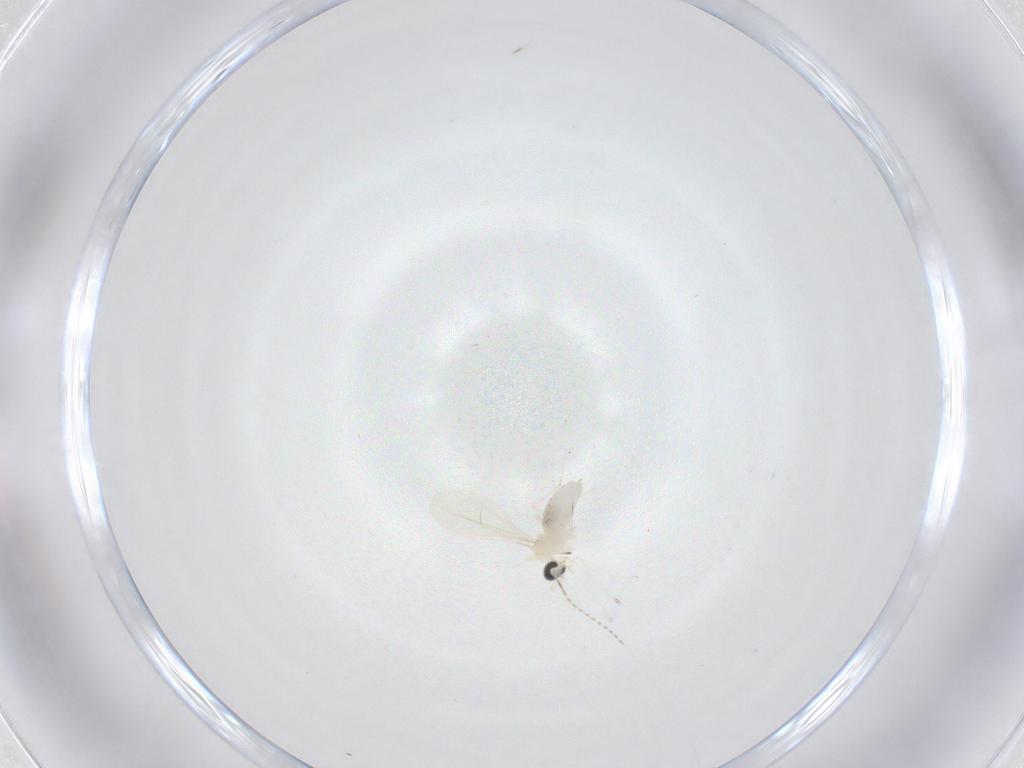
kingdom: Animalia
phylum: Arthropoda
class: Insecta
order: Diptera
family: Cecidomyiidae
